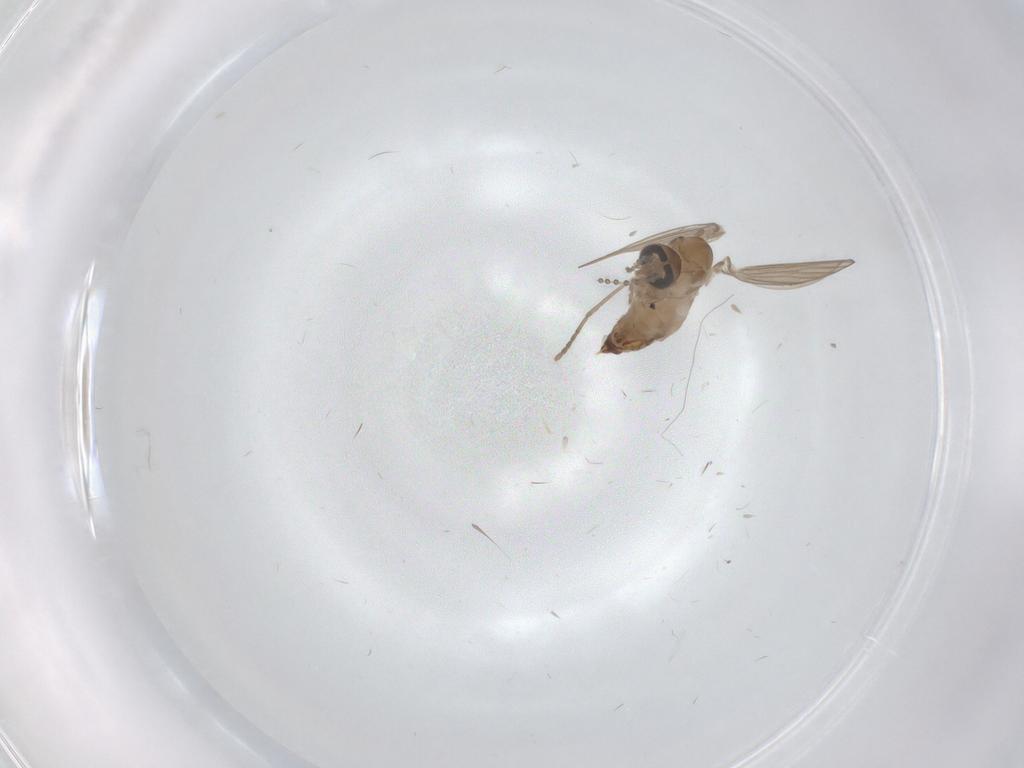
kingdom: Animalia
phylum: Arthropoda
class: Insecta
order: Diptera
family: Psychodidae
